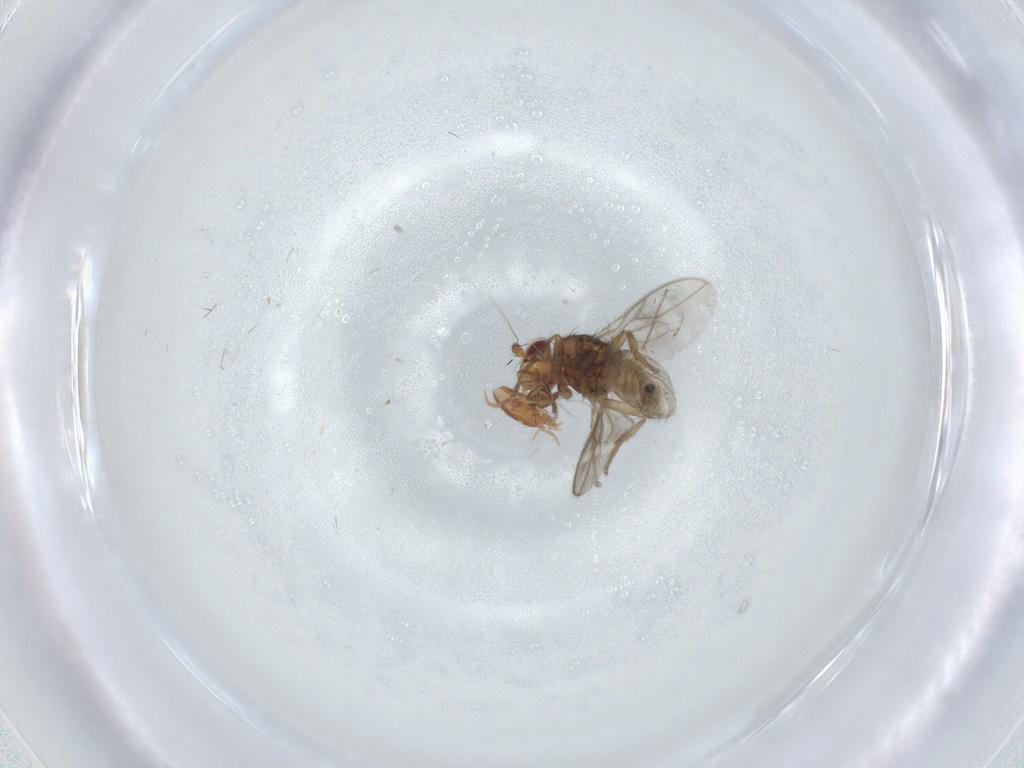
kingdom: Animalia
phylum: Arthropoda
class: Insecta
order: Diptera
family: Sphaeroceridae
